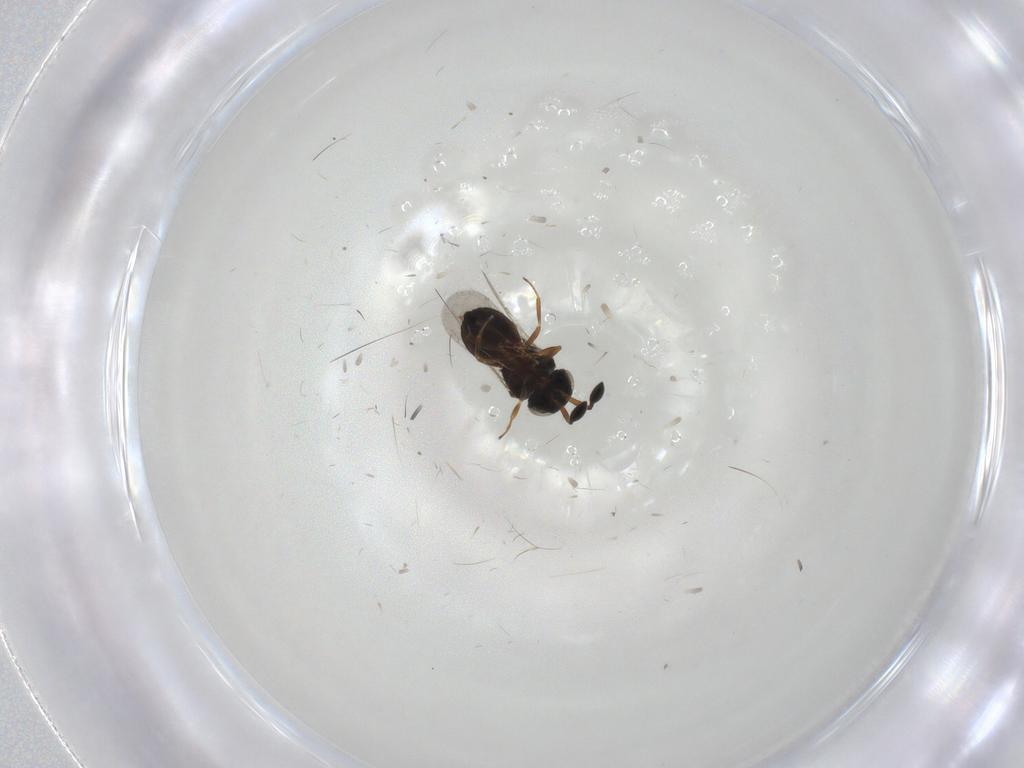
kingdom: Animalia
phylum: Arthropoda
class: Insecta
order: Hymenoptera
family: Scelionidae
